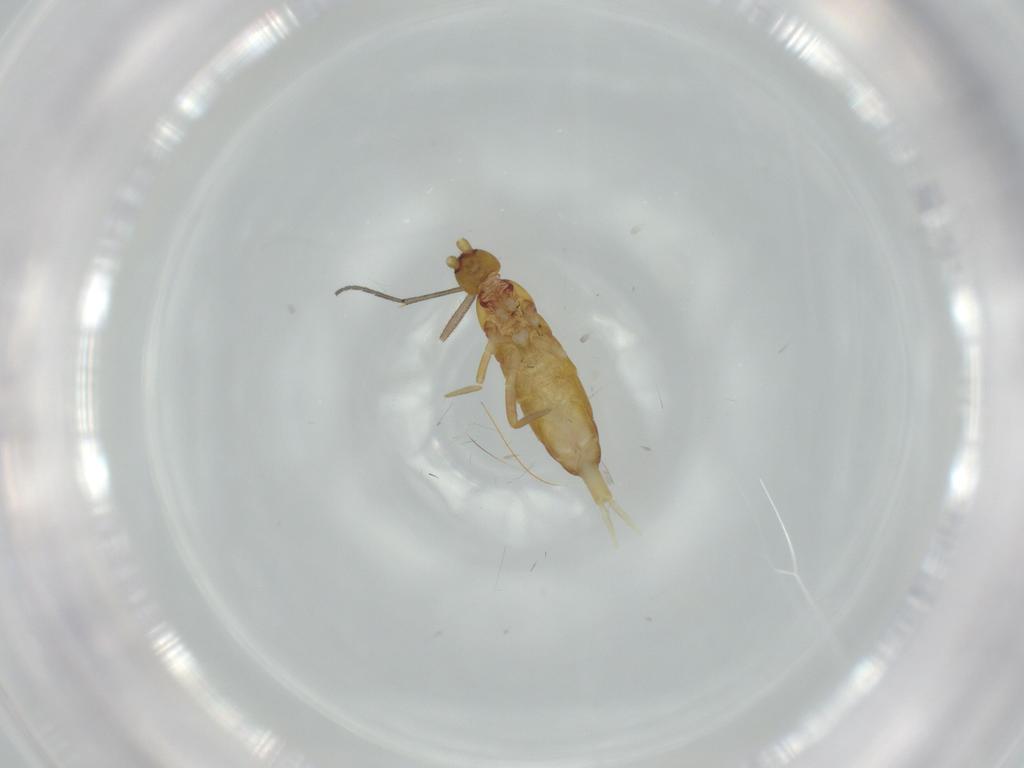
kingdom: Animalia
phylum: Arthropoda
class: Collembola
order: Entomobryomorpha
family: Tomoceridae
